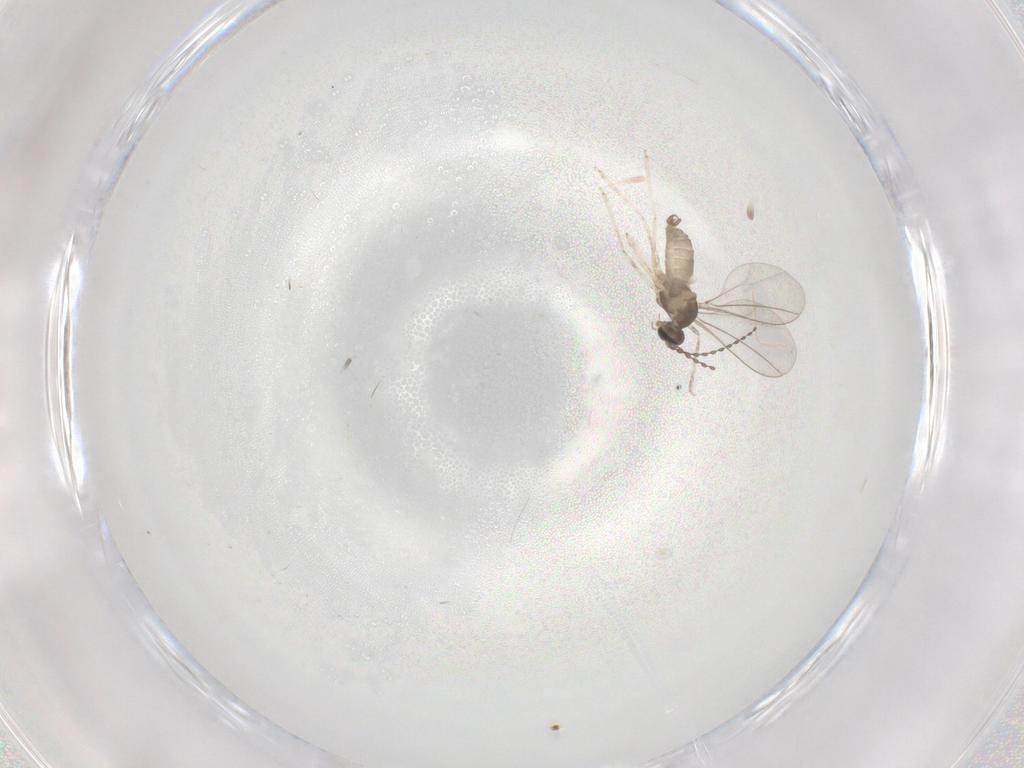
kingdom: Animalia
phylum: Arthropoda
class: Insecta
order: Diptera
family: Cecidomyiidae
